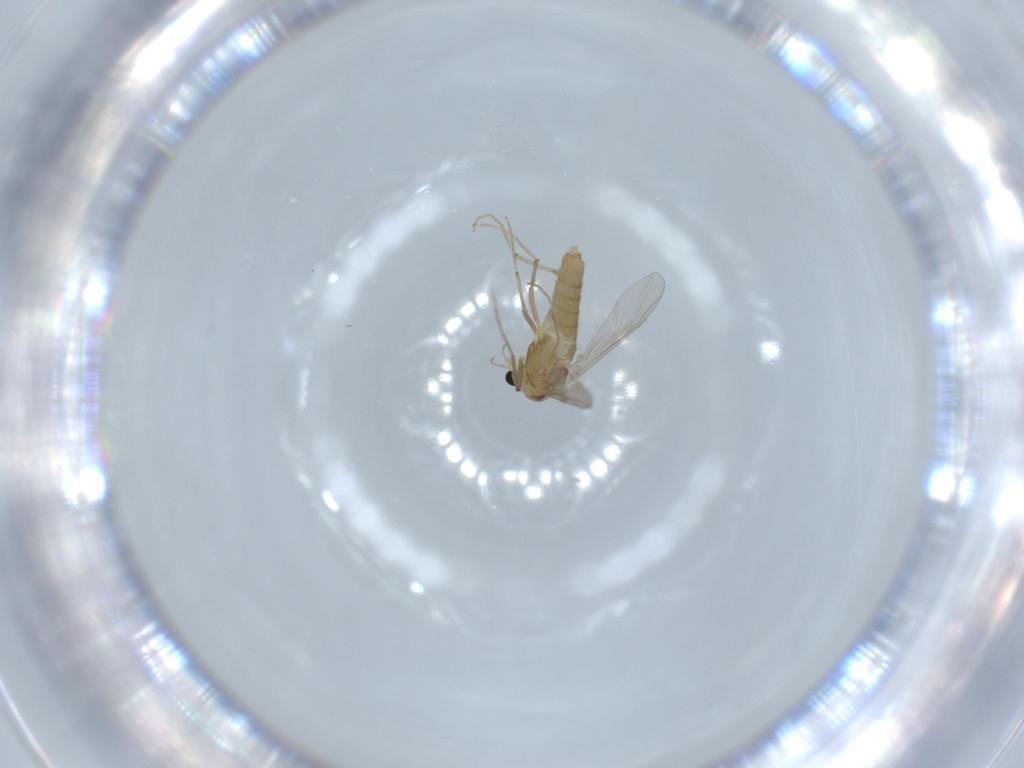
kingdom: Animalia
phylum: Arthropoda
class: Insecta
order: Diptera
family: Chironomidae
